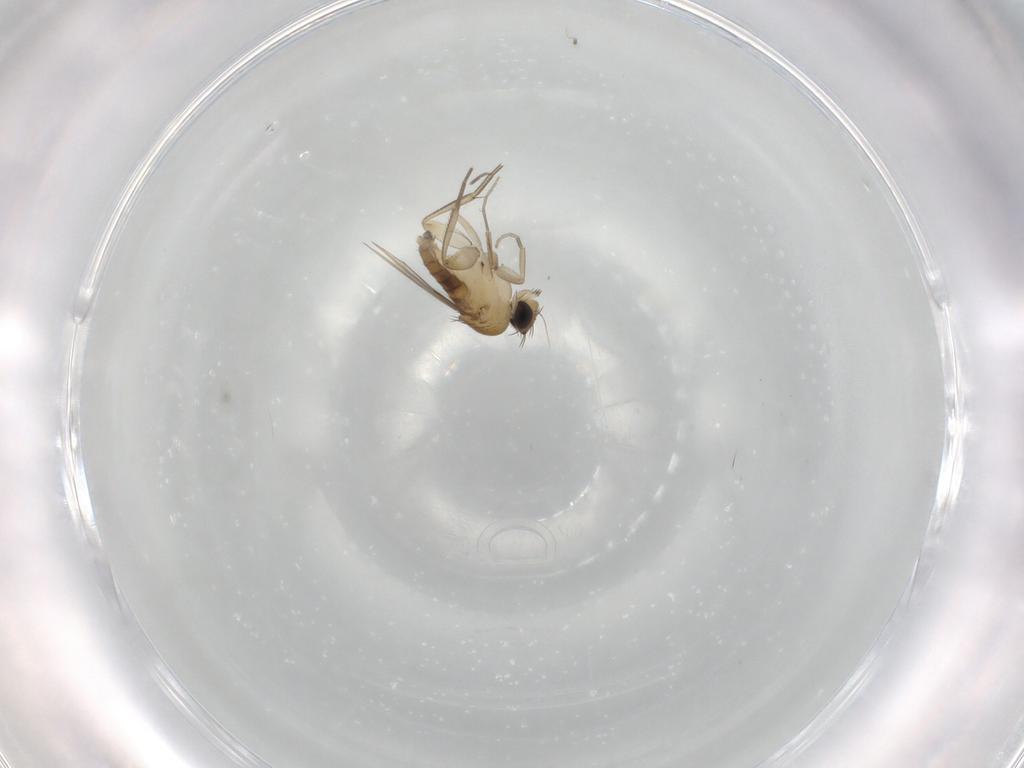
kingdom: Animalia
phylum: Arthropoda
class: Insecta
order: Diptera
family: Phoridae
